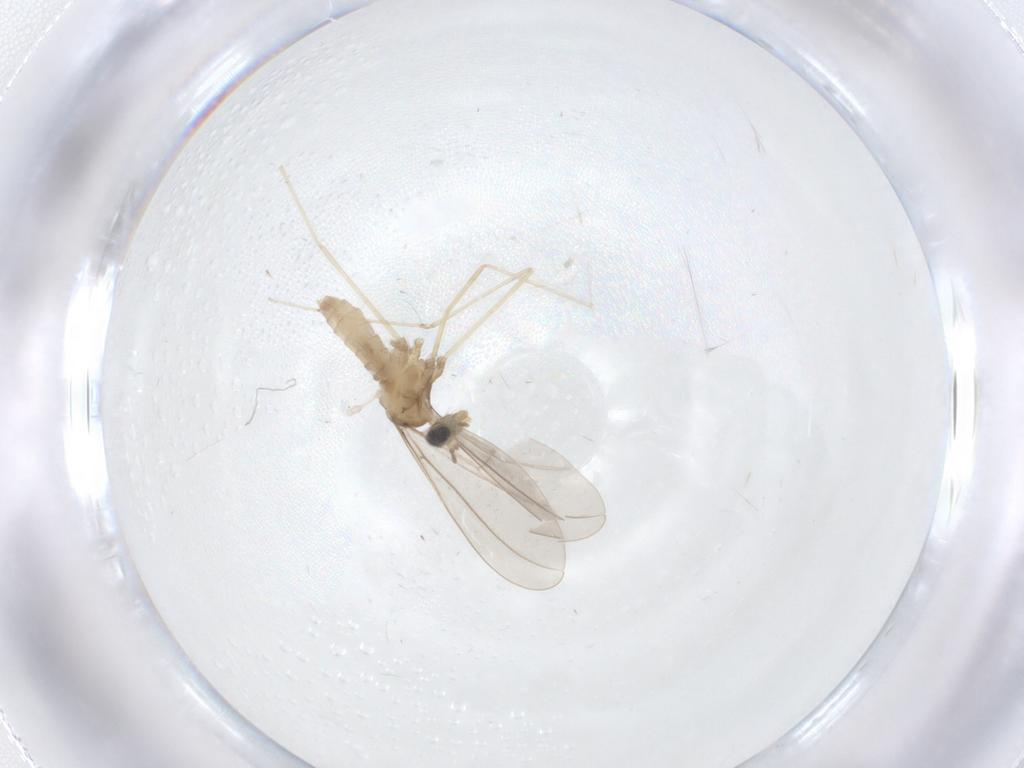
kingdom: Animalia
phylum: Arthropoda
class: Insecta
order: Diptera
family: Cecidomyiidae
